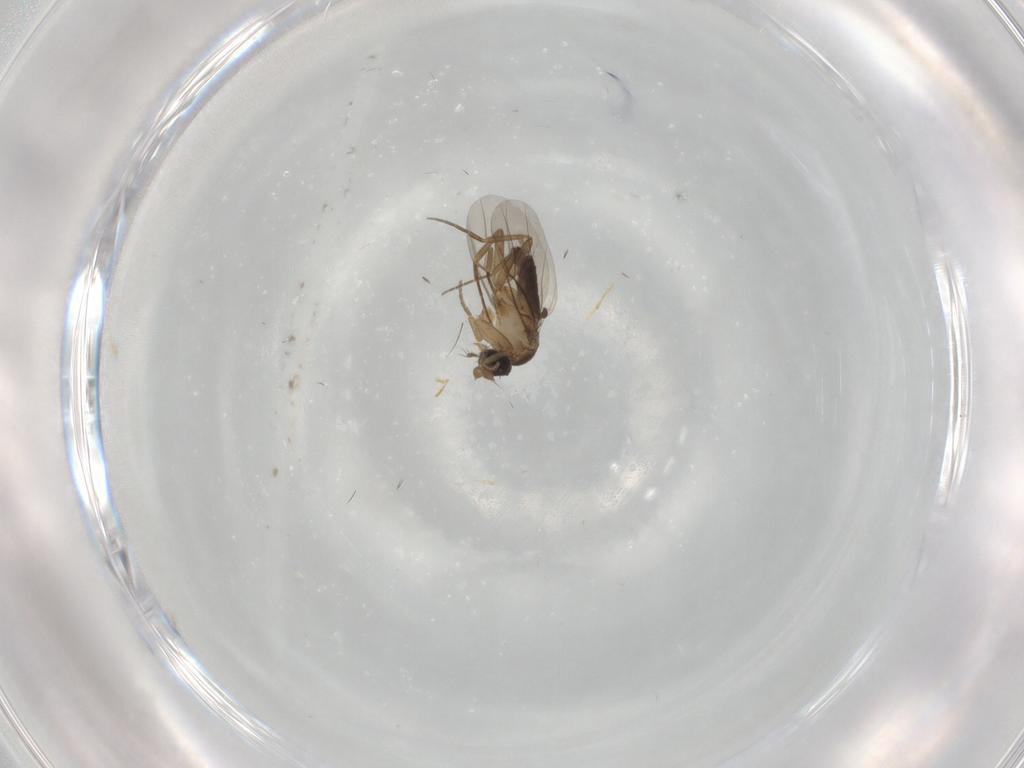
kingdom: Animalia
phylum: Arthropoda
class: Insecta
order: Diptera
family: Phoridae
